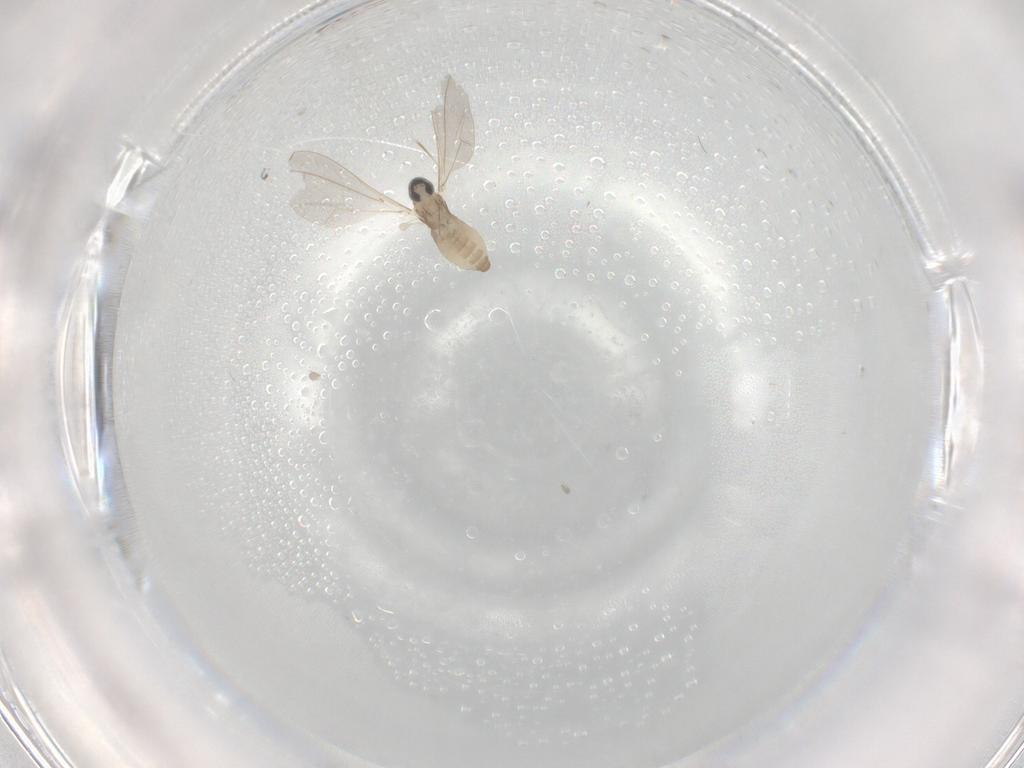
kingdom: Animalia
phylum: Arthropoda
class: Insecta
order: Diptera
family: Cecidomyiidae
